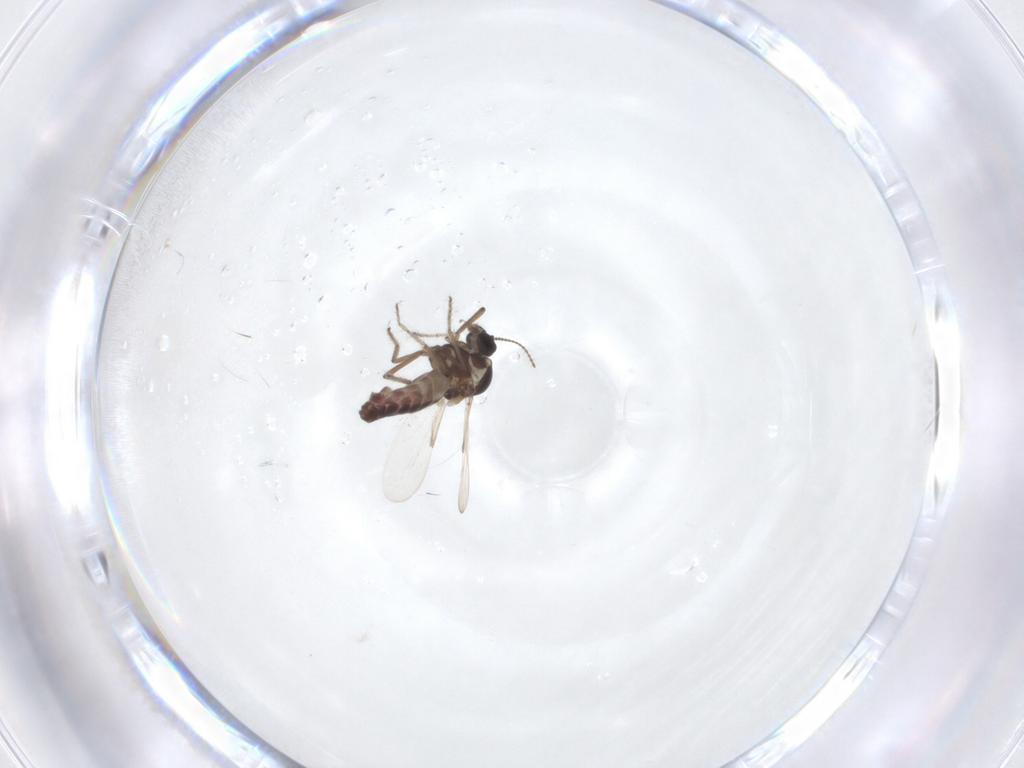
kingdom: Animalia
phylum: Arthropoda
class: Insecta
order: Diptera
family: Ceratopogonidae
